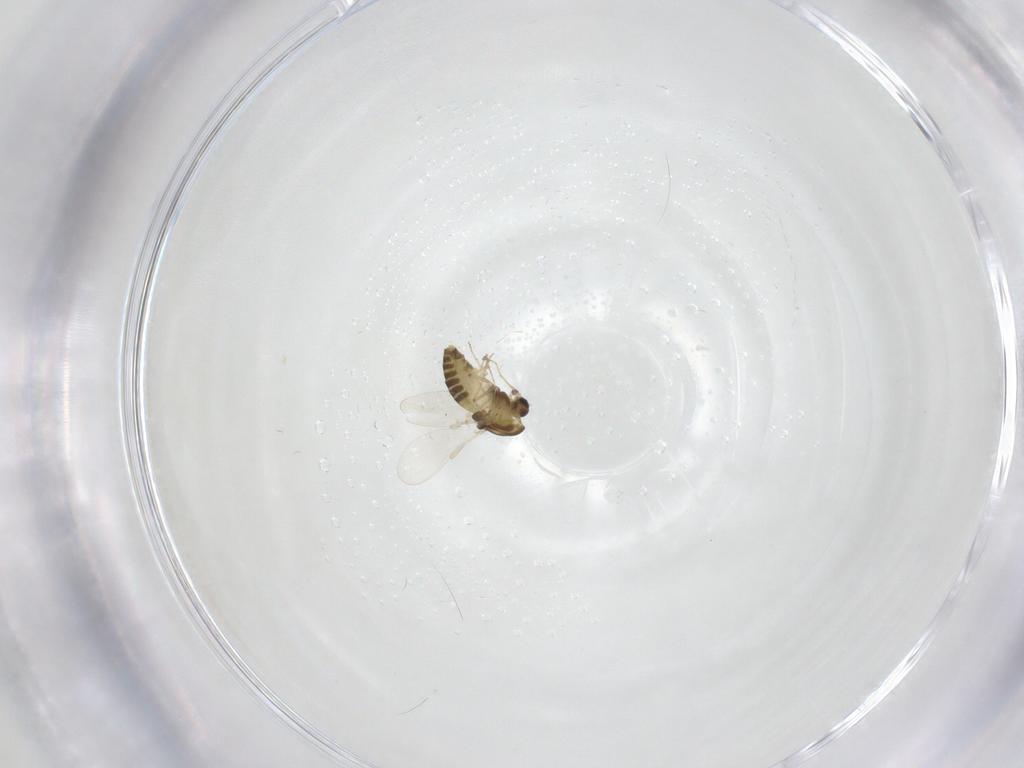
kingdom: Animalia
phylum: Arthropoda
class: Insecta
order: Diptera
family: Chironomidae
